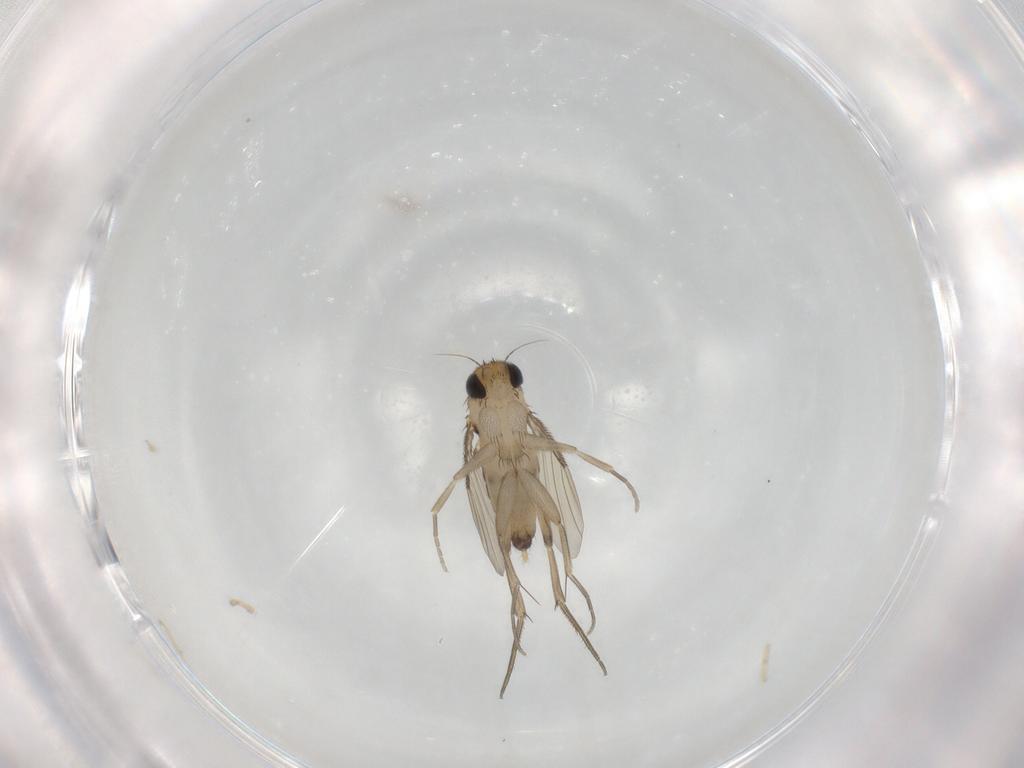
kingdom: Animalia
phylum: Arthropoda
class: Insecta
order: Diptera
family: Phoridae
